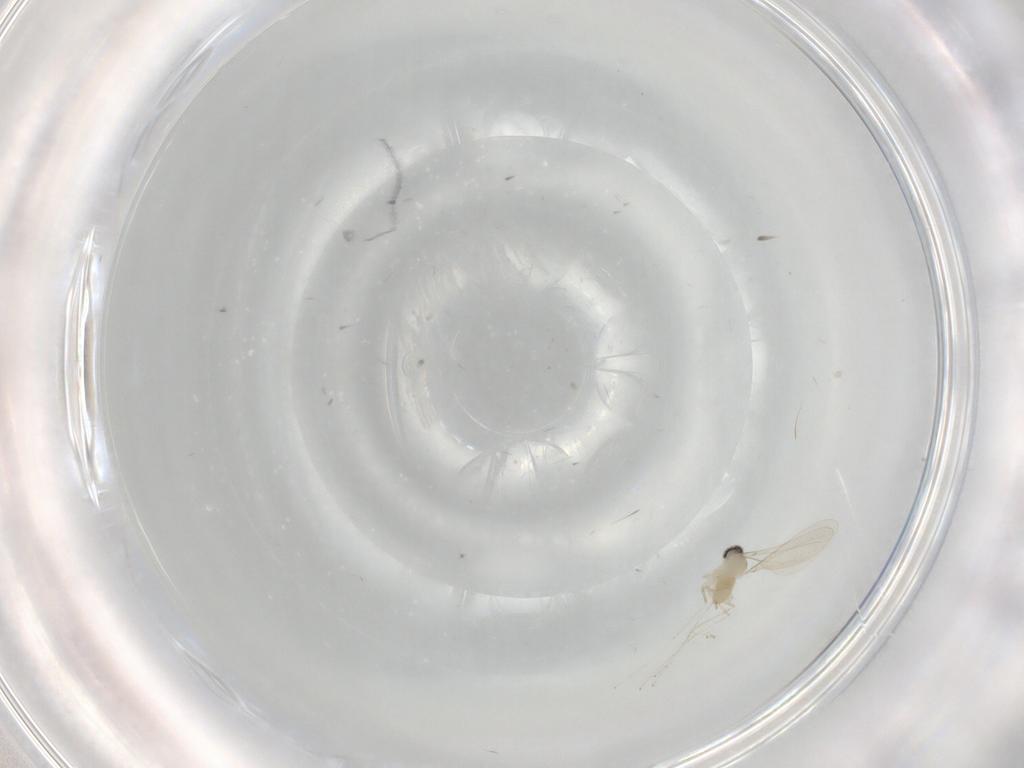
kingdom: Animalia
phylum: Arthropoda
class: Insecta
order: Diptera
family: Cecidomyiidae
